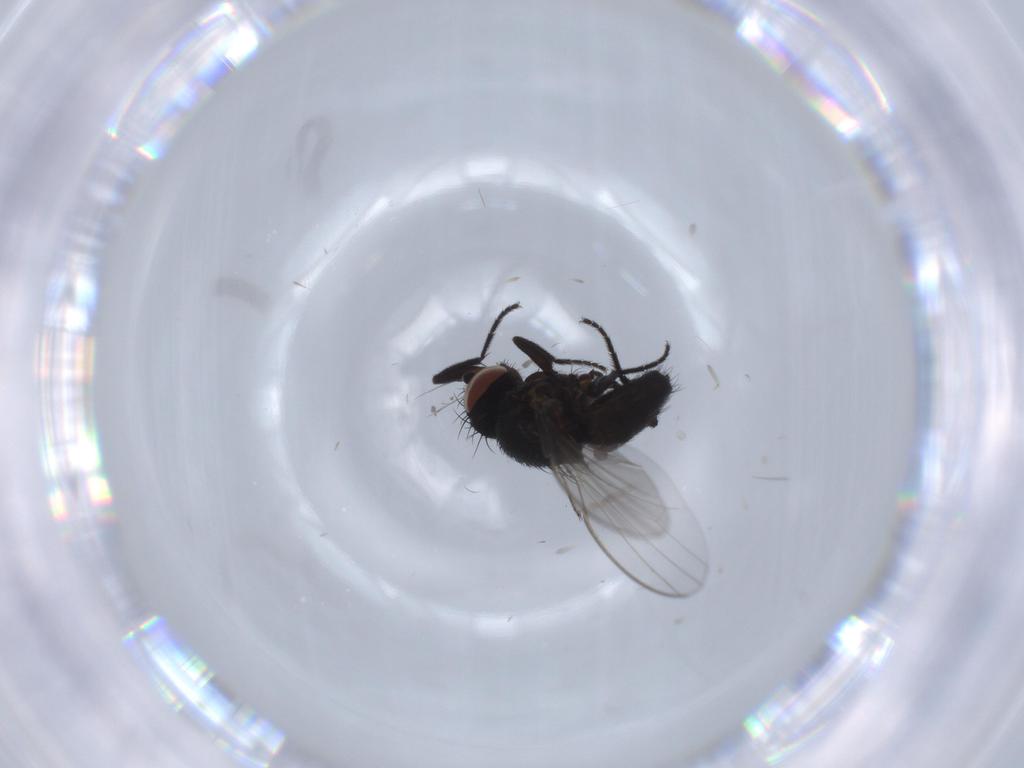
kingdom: Animalia
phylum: Arthropoda
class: Insecta
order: Diptera
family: Milichiidae
